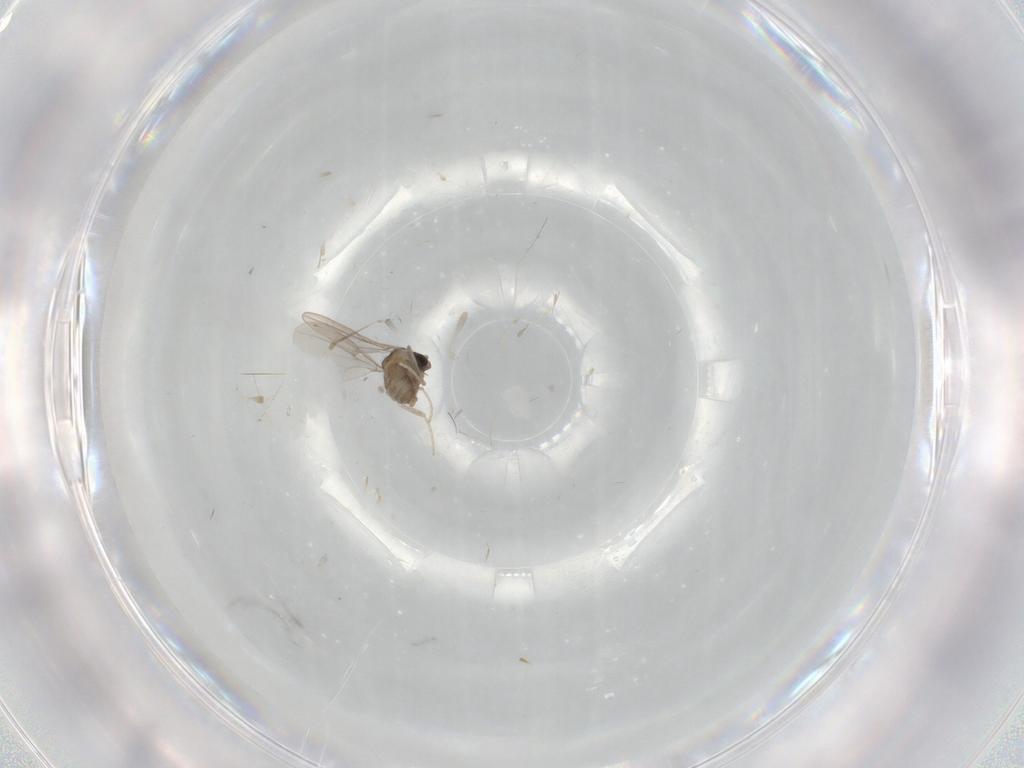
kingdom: Animalia
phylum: Arthropoda
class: Insecta
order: Diptera
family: Cecidomyiidae
